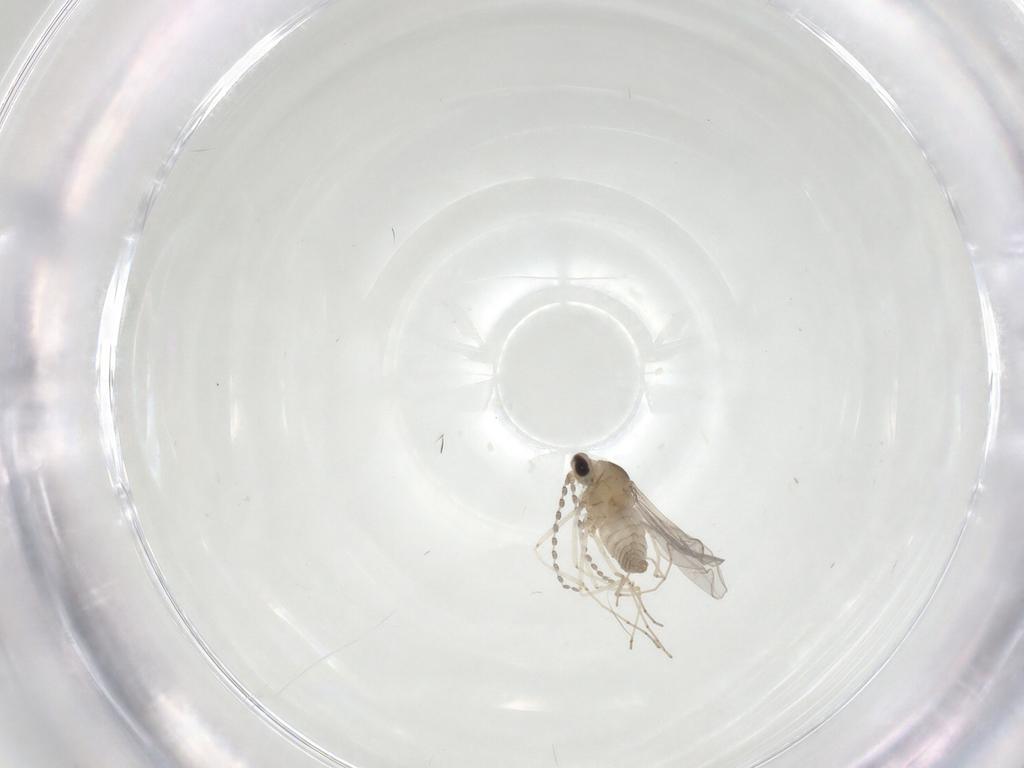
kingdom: Animalia
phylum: Arthropoda
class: Insecta
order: Diptera
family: Cecidomyiidae
